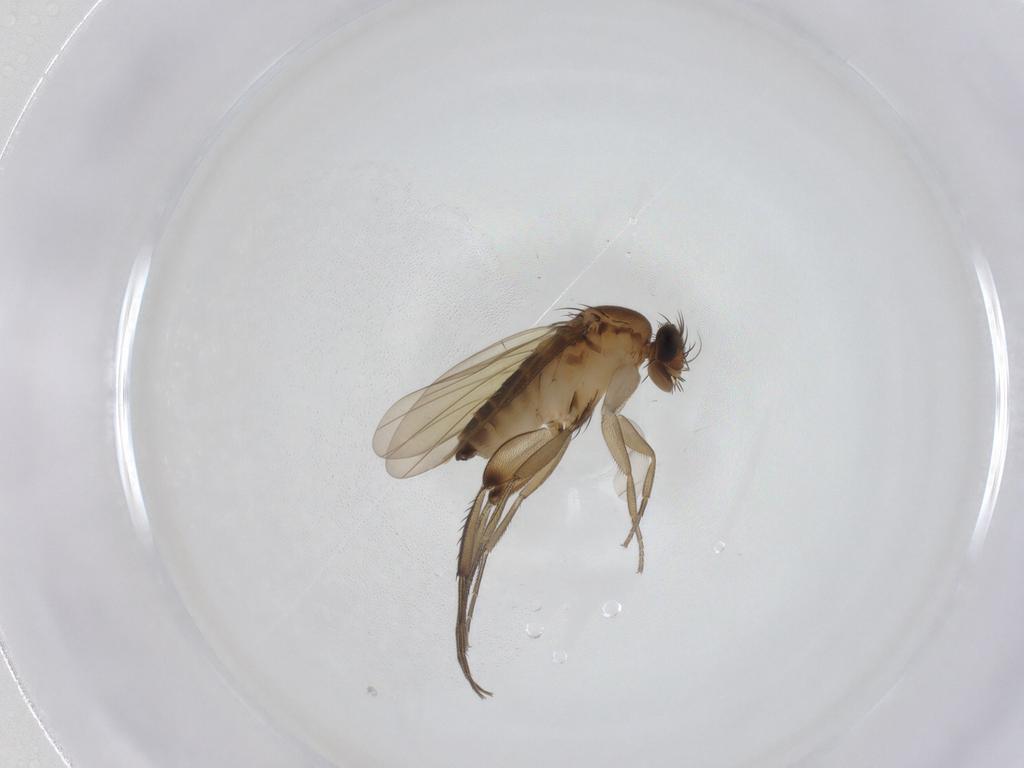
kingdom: Animalia
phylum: Arthropoda
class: Insecta
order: Diptera
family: Phoridae
